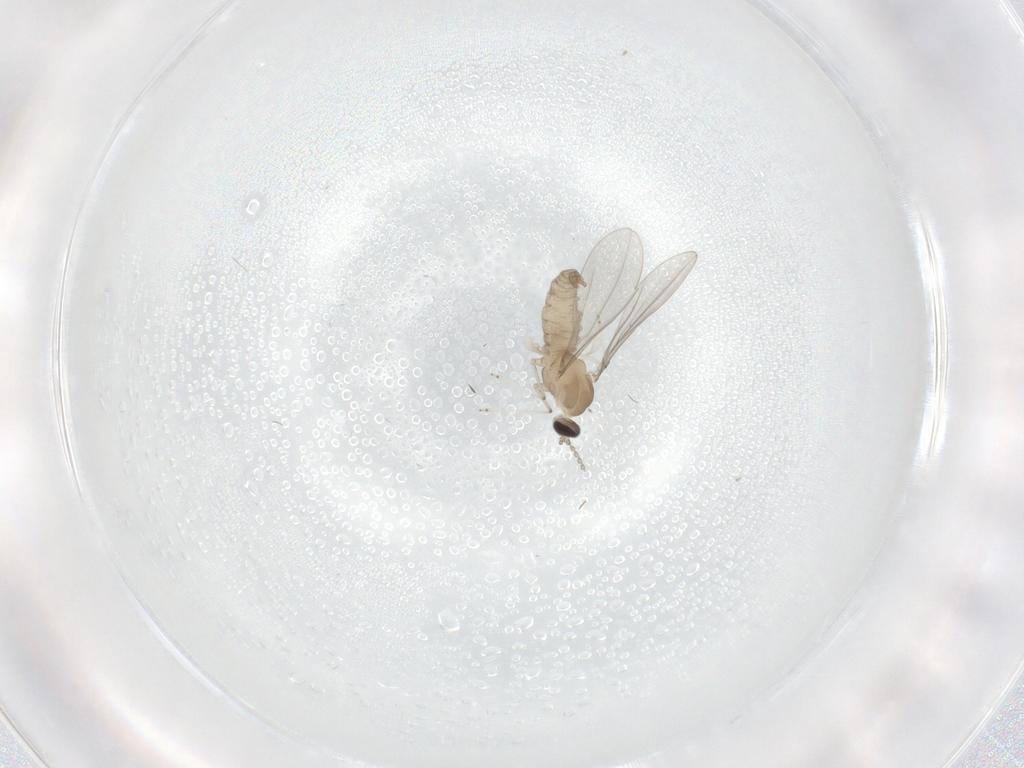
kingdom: Animalia
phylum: Arthropoda
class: Insecta
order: Diptera
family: Cecidomyiidae
